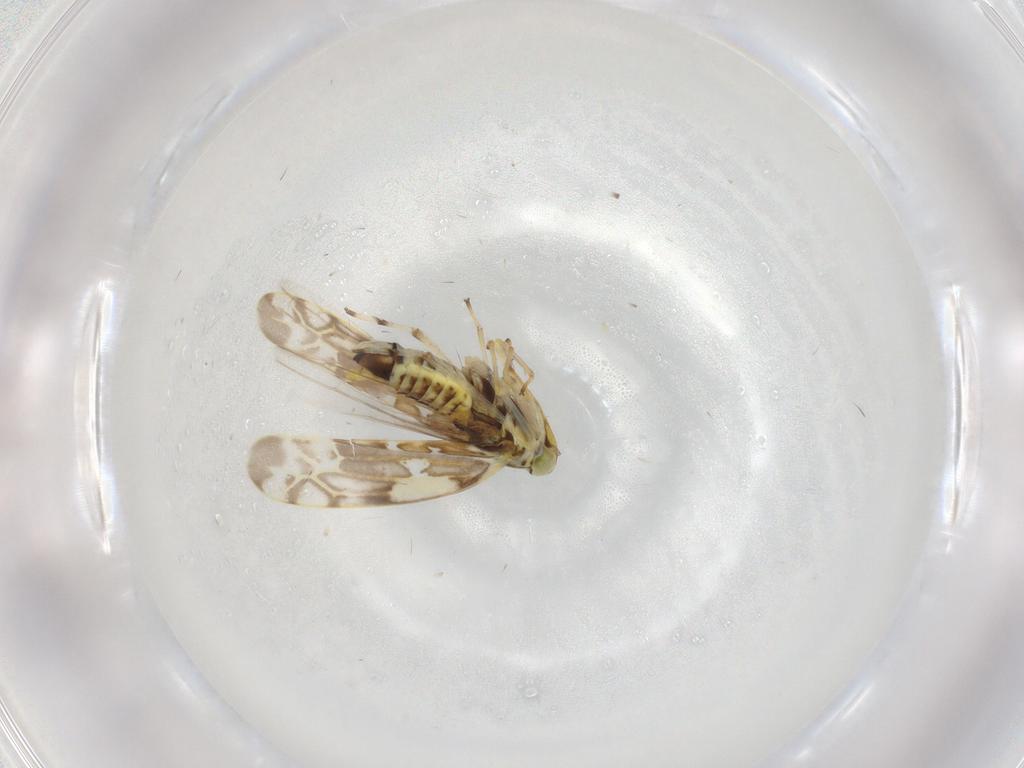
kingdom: Animalia
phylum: Arthropoda
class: Insecta
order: Hemiptera
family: Cicadellidae
